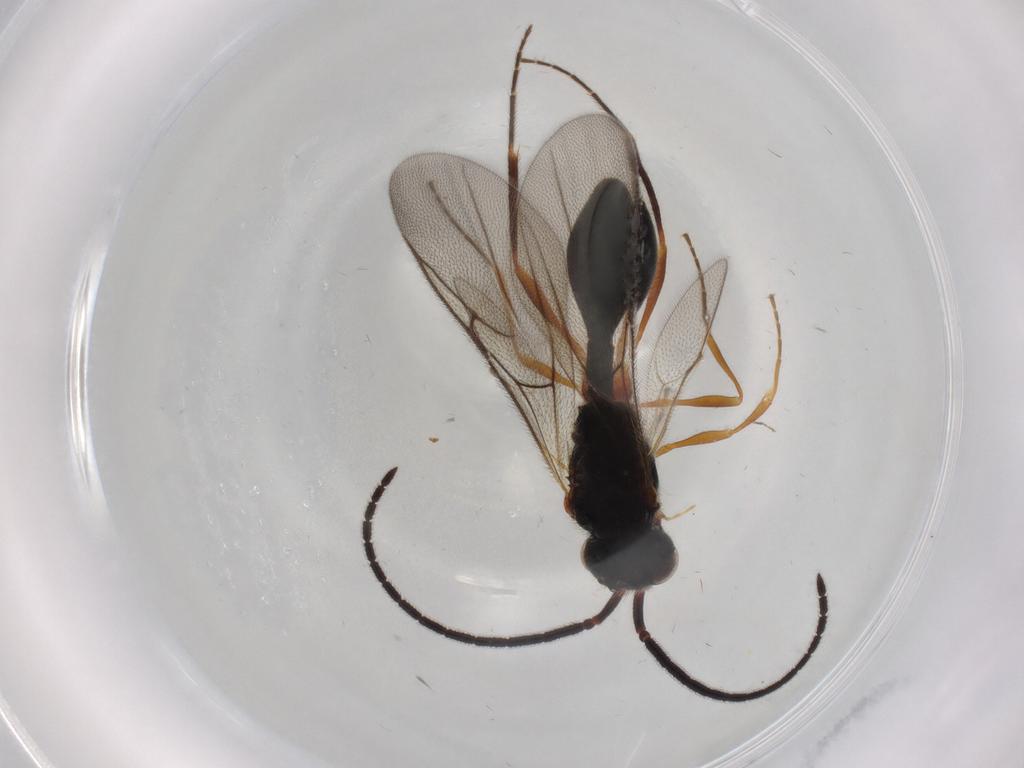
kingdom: Animalia
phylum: Arthropoda
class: Insecta
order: Hymenoptera
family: Diapriidae
